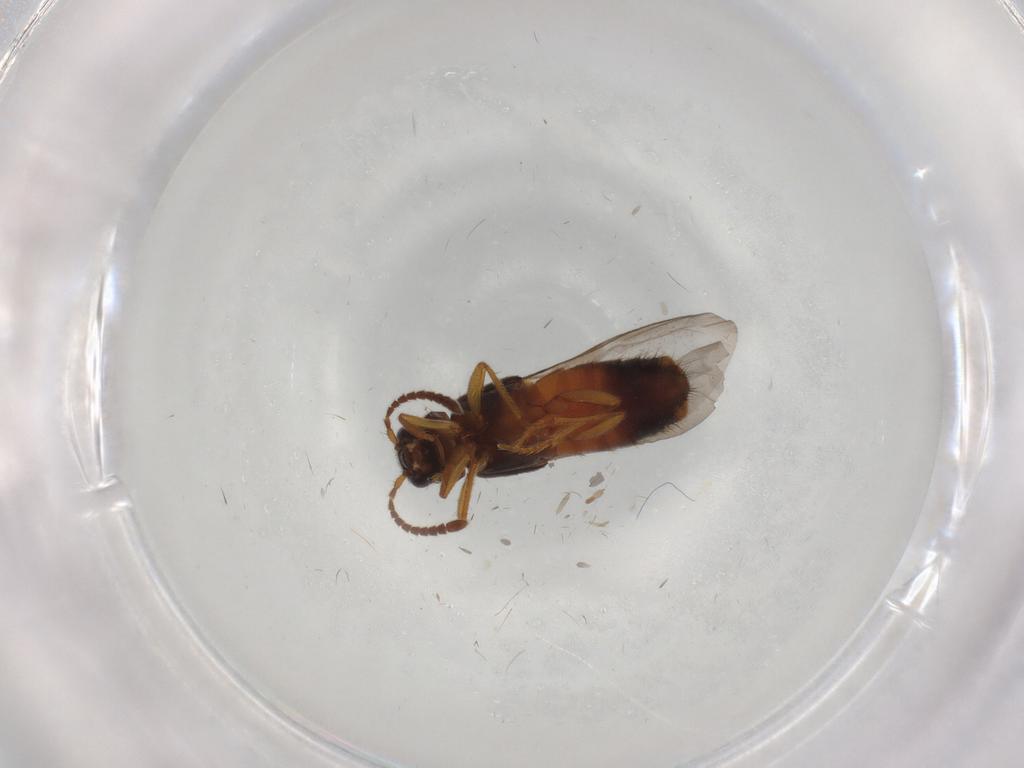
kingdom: Animalia
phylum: Arthropoda
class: Insecta
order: Coleoptera
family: Staphylinidae
